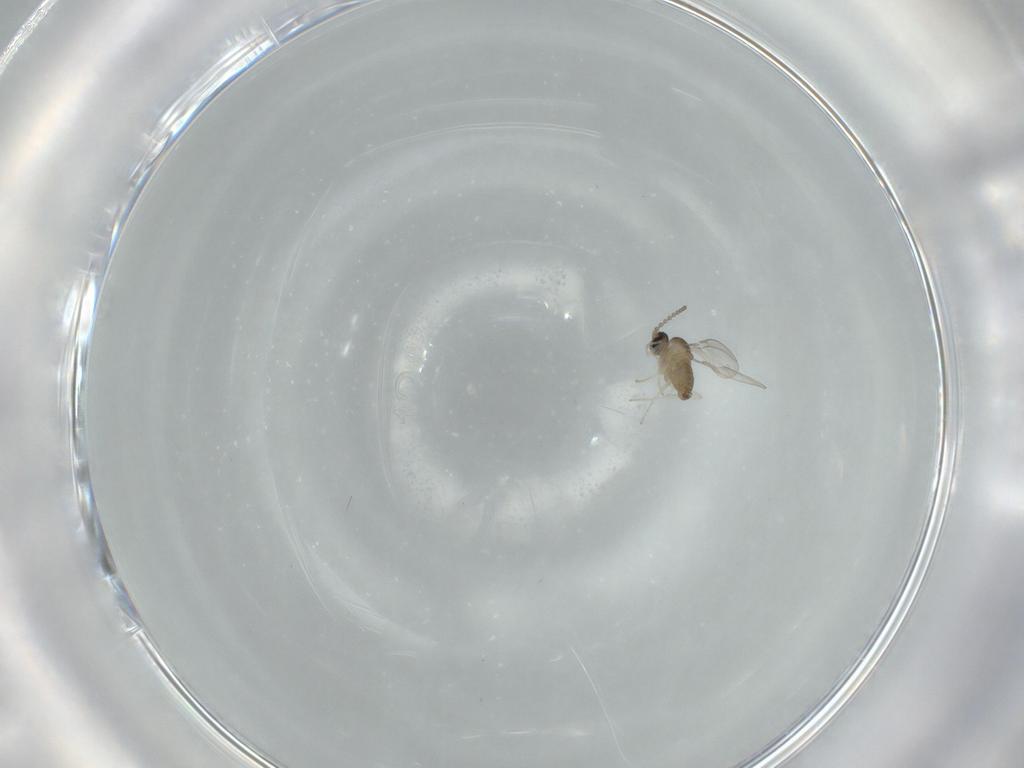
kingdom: Animalia
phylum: Arthropoda
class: Insecta
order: Diptera
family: Cecidomyiidae
